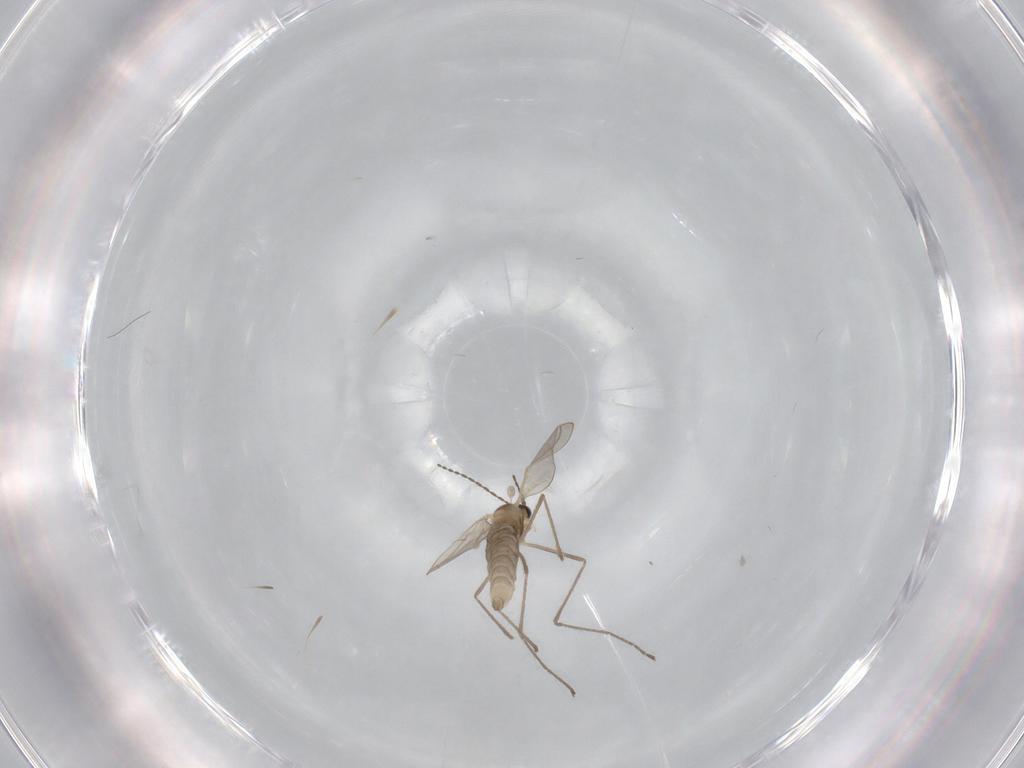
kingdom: Animalia
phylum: Arthropoda
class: Insecta
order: Diptera
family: Cecidomyiidae
